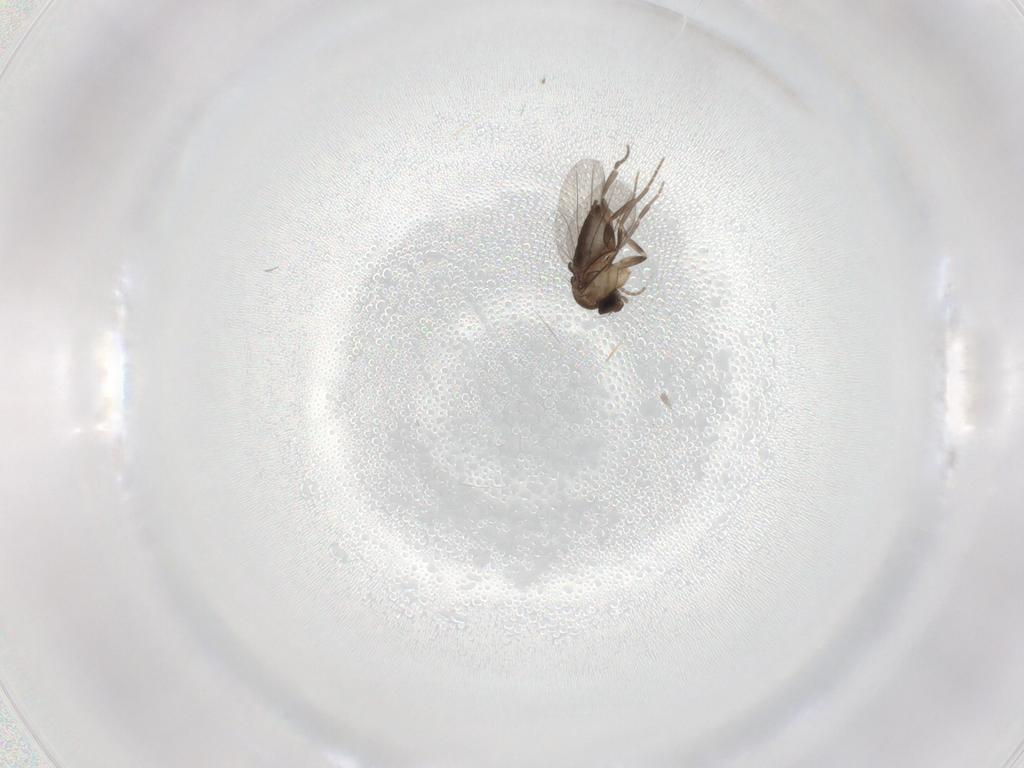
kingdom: Animalia
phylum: Arthropoda
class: Insecta
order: Diptera
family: Phoridae
